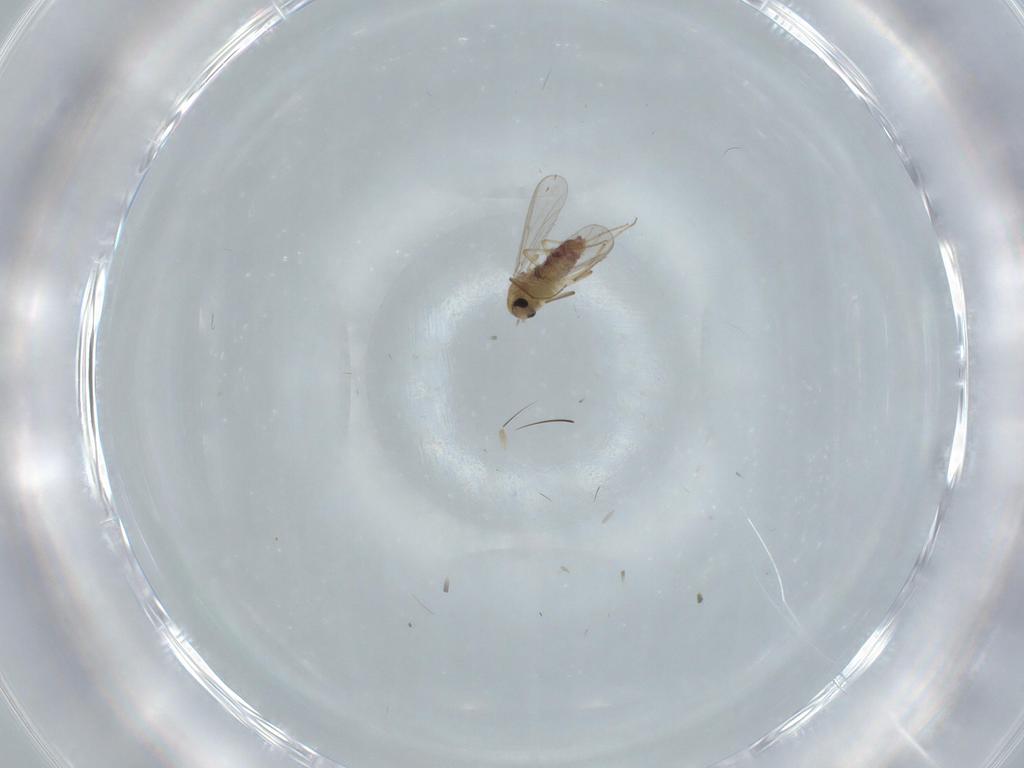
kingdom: Animalia
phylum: Arthropoda
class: Insecta
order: Diptera
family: Chironomidae
